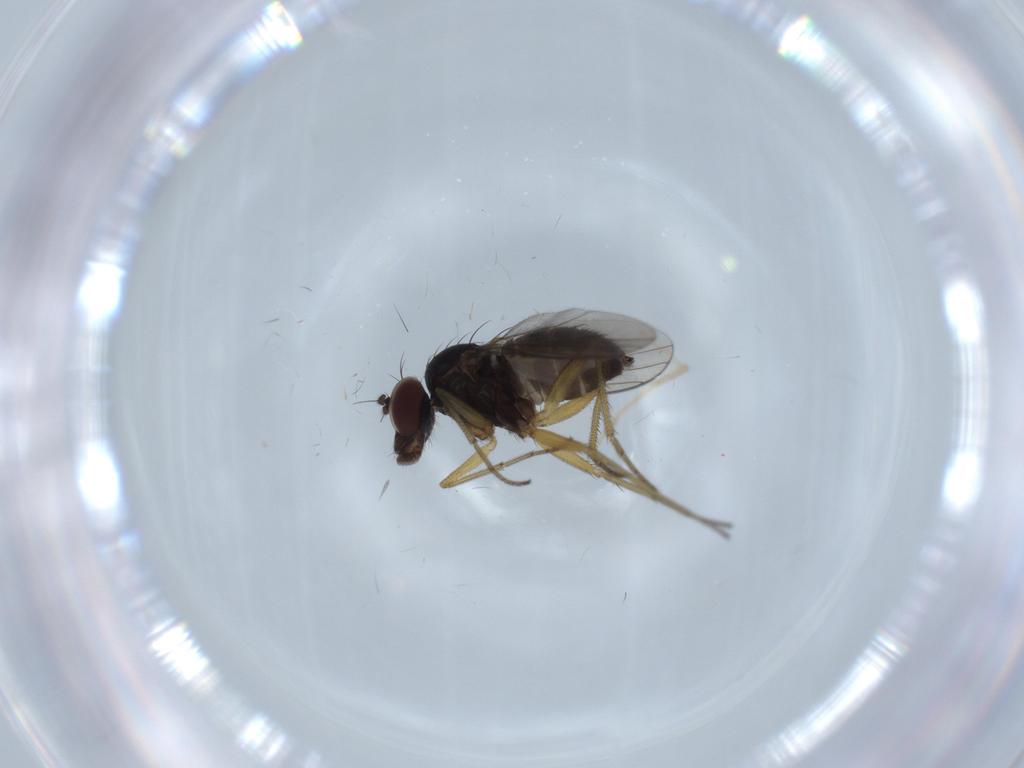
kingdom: Animalia
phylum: Arthropoda
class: Insecta
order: Diptera
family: Dolichopodidae
